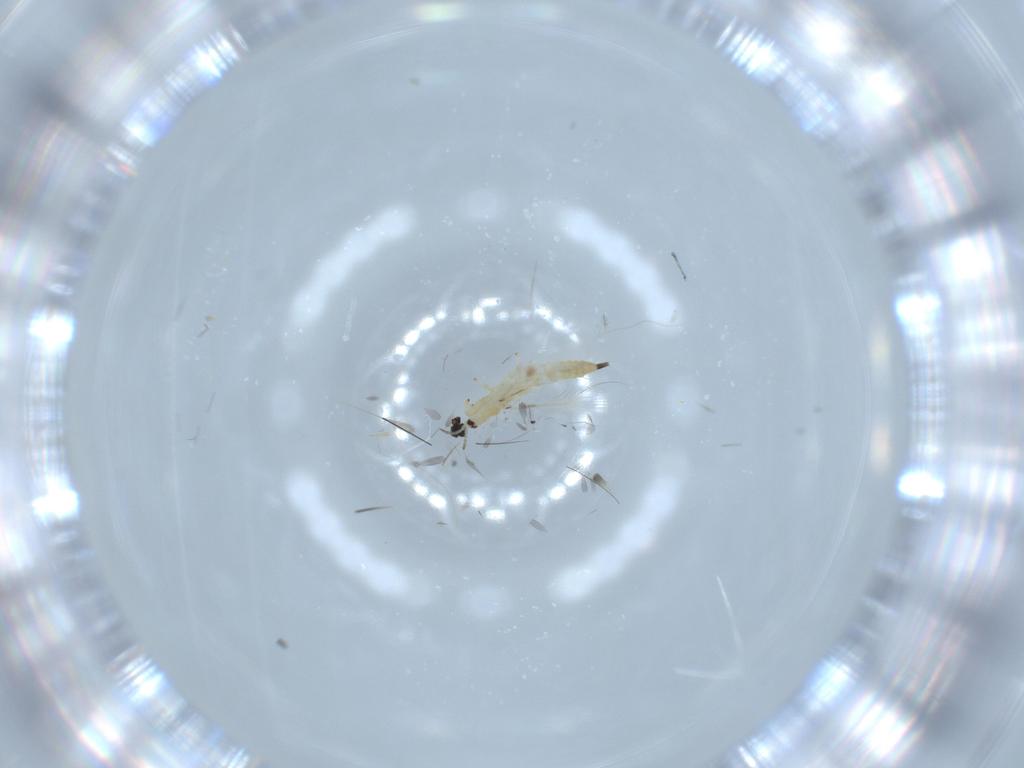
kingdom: Animalia
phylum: Arthropoda
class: Insecta
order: Thysanoptera
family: Phlaeothripidae
